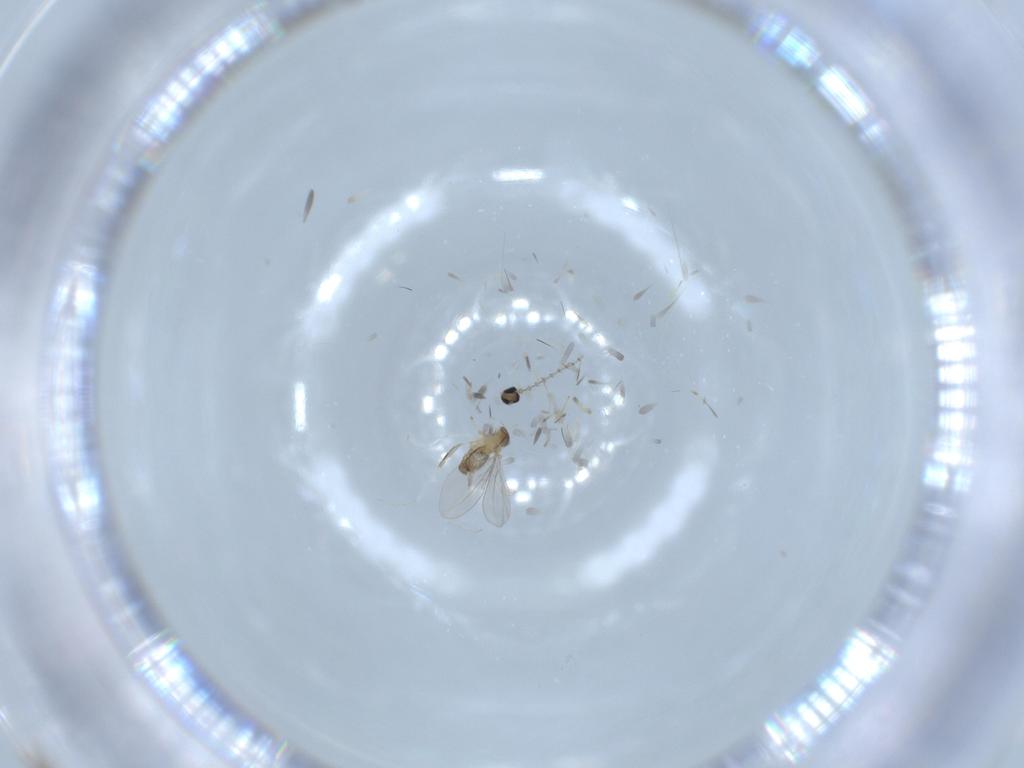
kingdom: Animalia
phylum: Arthropoda
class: Insecta
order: Diptera
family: Cecidomyiidae
